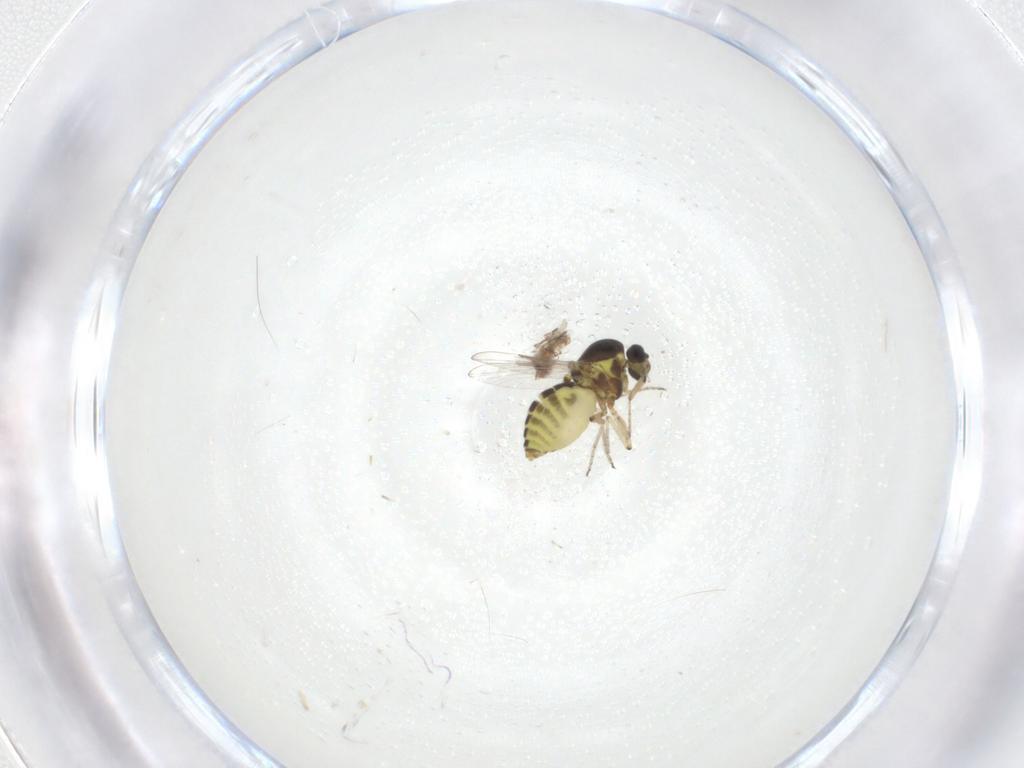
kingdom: Animalia
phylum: Arthropoda
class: Insecta
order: Diptera
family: Ceratopogonidae
